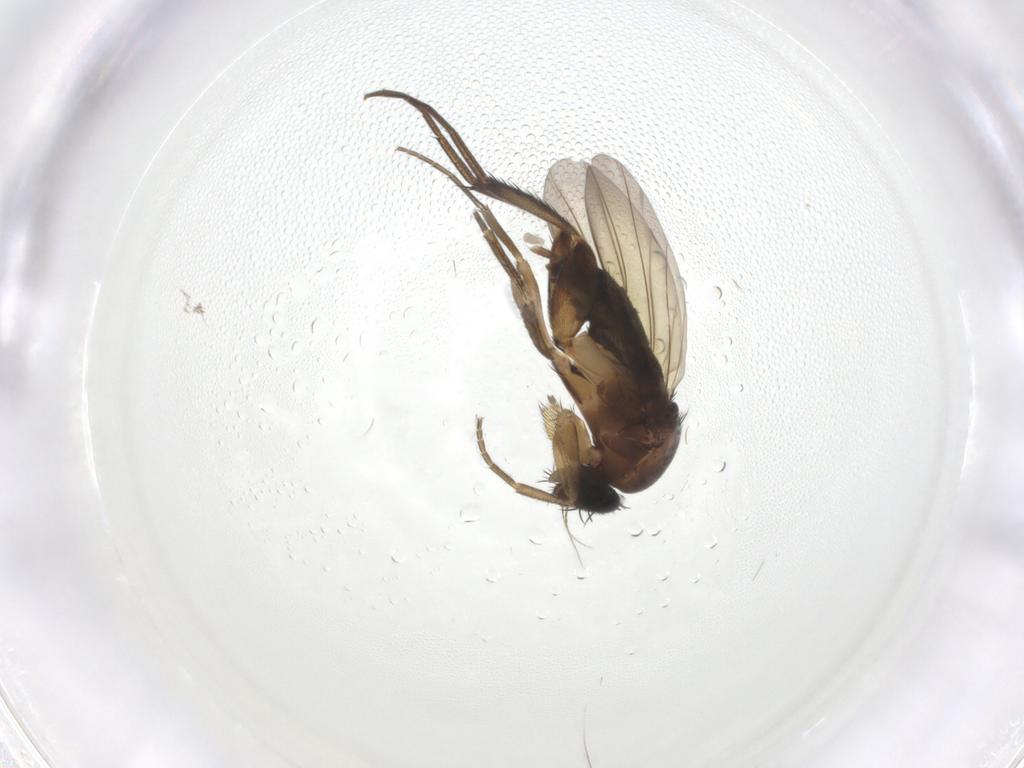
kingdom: Animalia
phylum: Arthropoda
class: Insecta
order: Diptera
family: Phoridae
